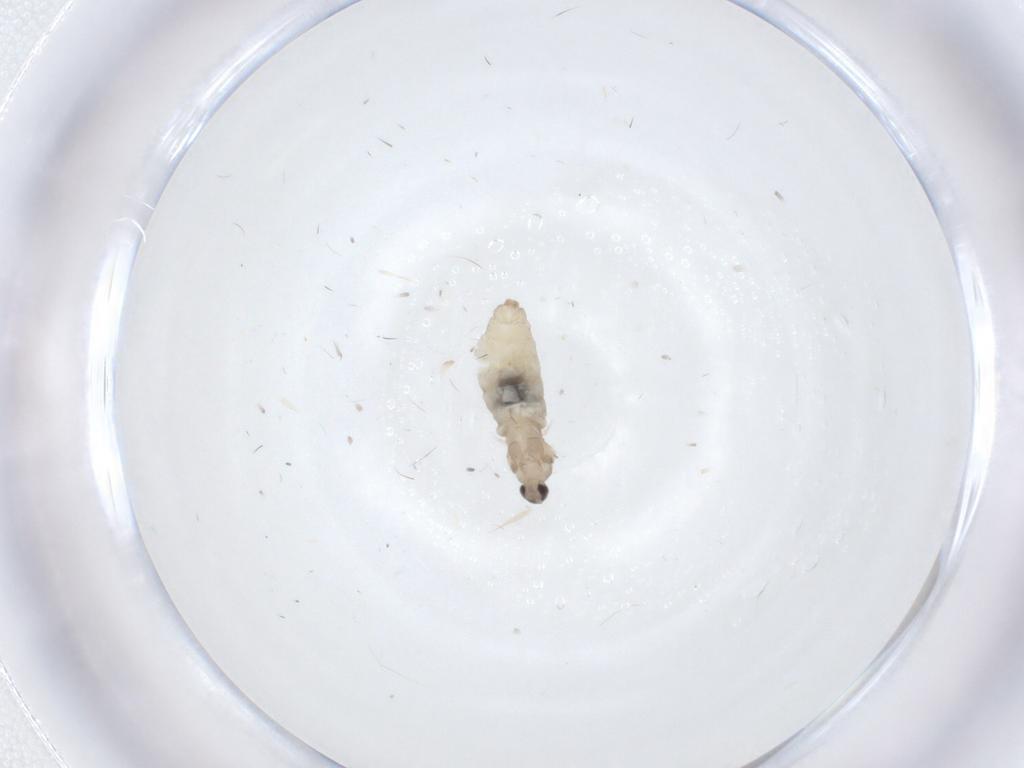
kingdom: Animalia
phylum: Arthropoda
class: Insecta
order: Diptera
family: Cecidomyiidae
